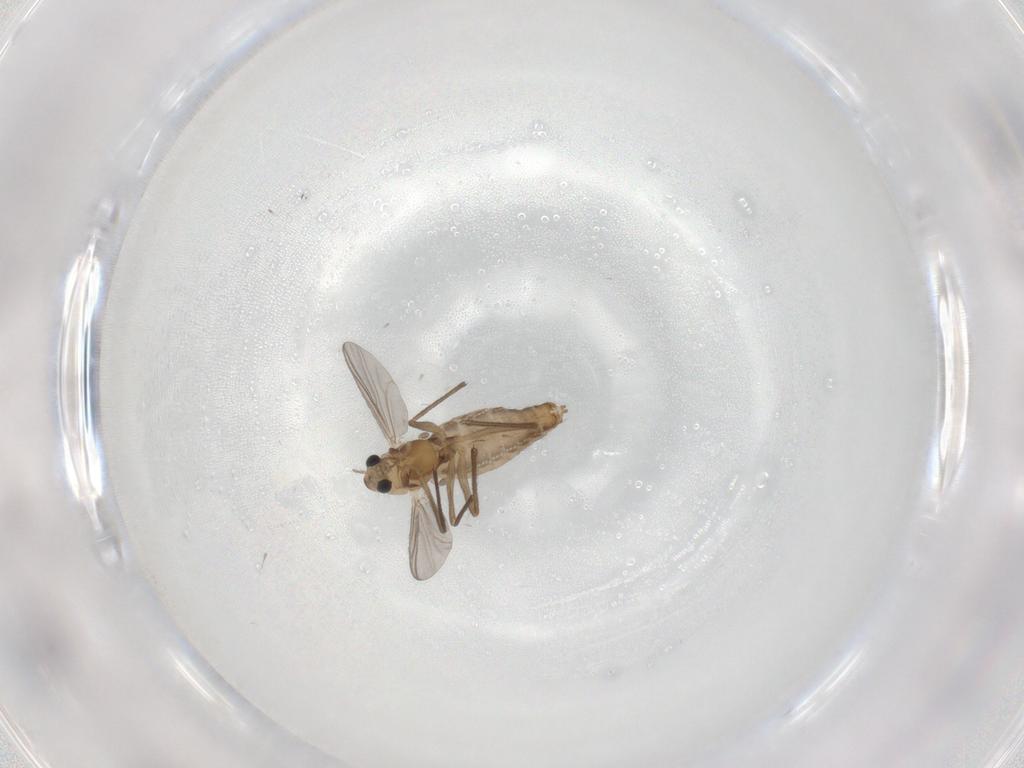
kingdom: Animalia
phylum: Arthropoda
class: Insecta
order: Diptera
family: Chironomidae
